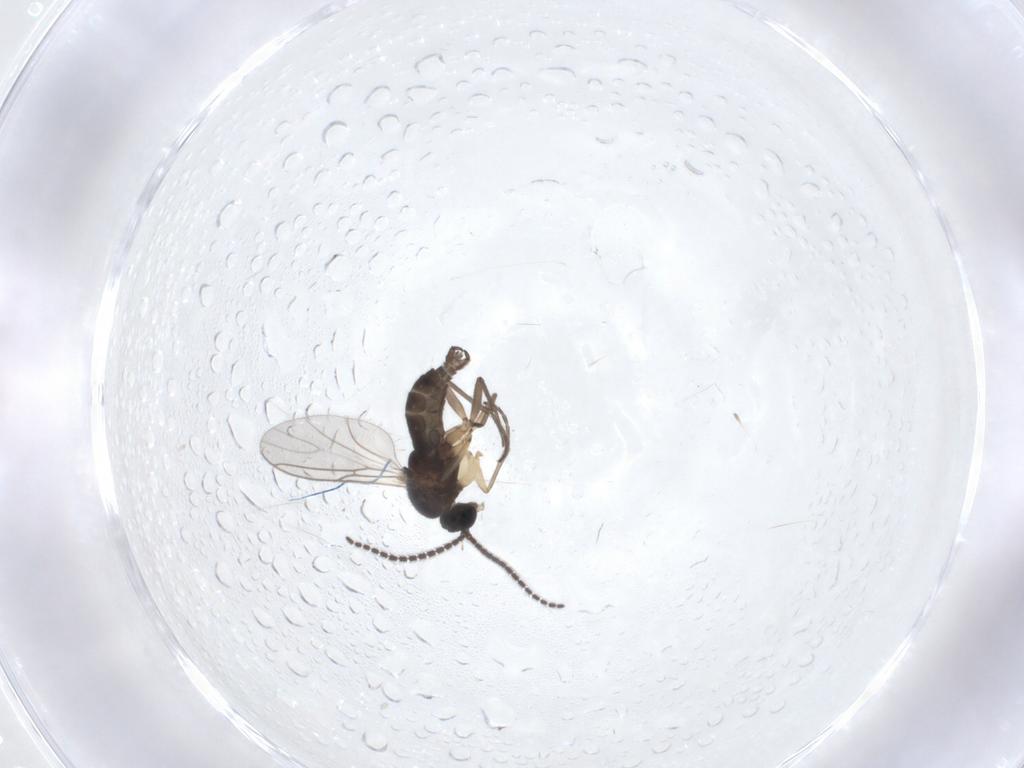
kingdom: Animalia
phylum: Arthropoda
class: Insecta
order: Diptera
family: Sciaridae
